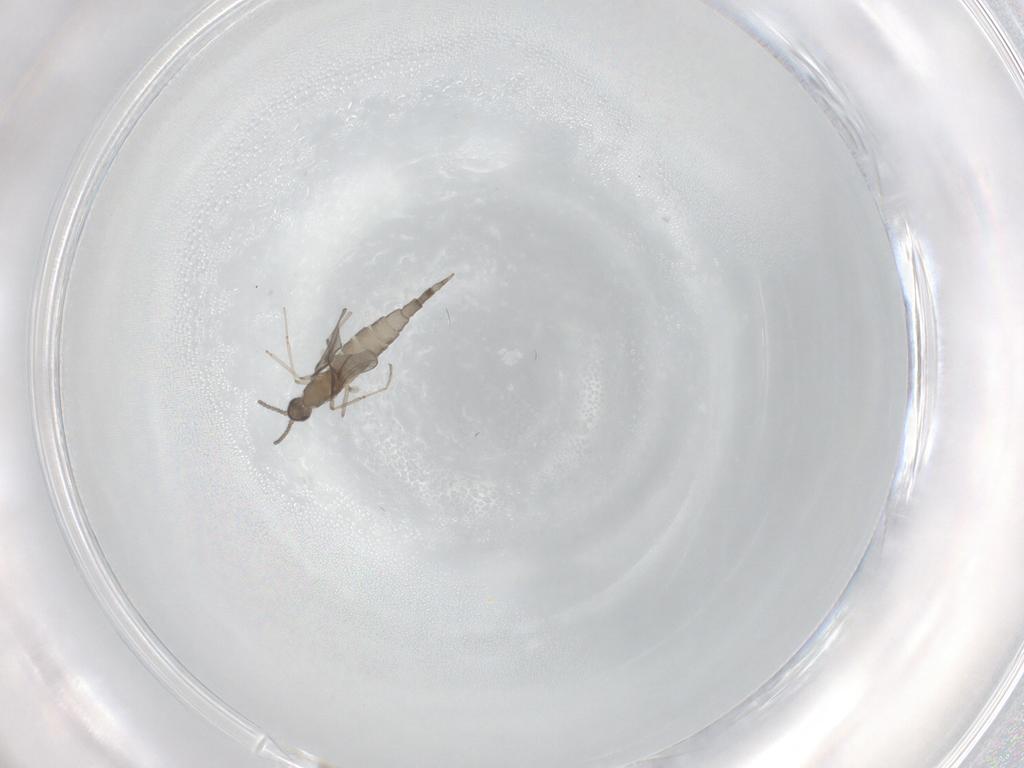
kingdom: Animalia
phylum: Arthropoda
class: Insecta
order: Diptera
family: Cecidomyiidae
